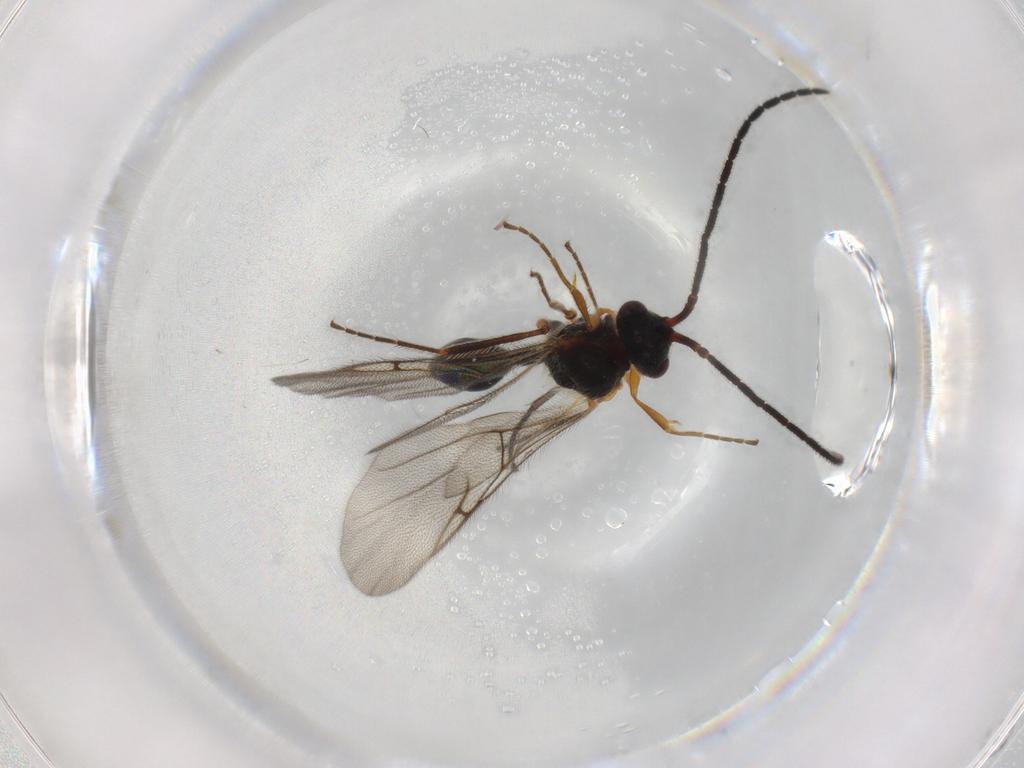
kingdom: Animalia
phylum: Arthropoda
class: Insecta
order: Hymenoptera
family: Diapriidae
